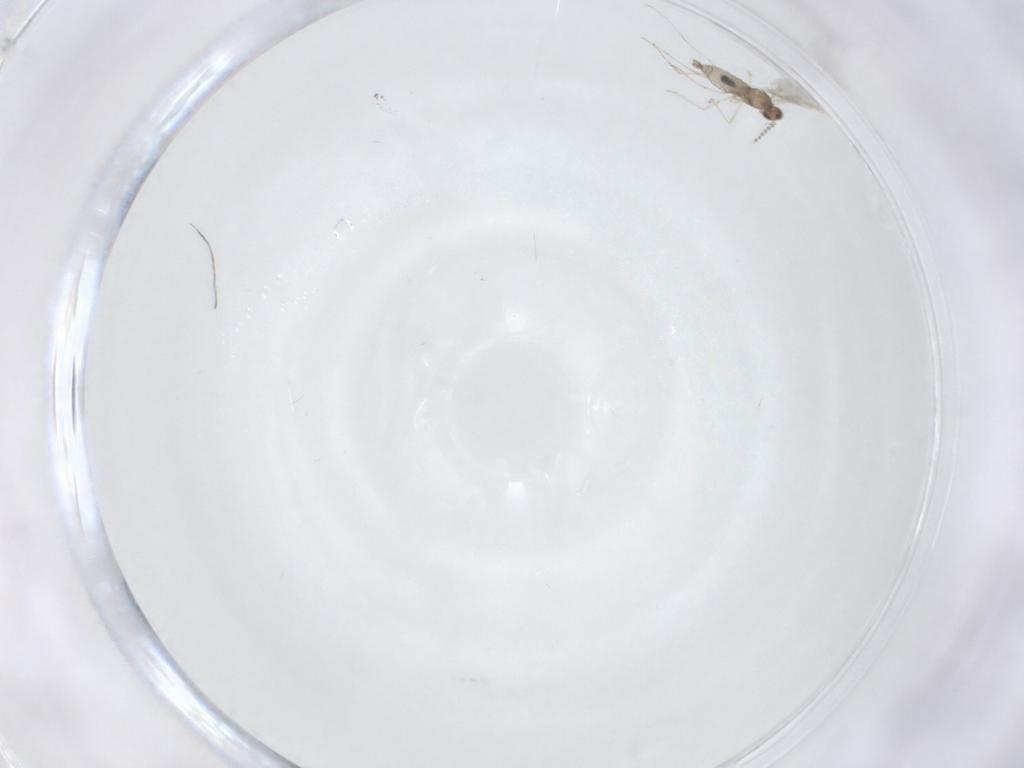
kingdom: Animalia
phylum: Arthropoda
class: Insecta
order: Diptera
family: Cecidomyiidae
